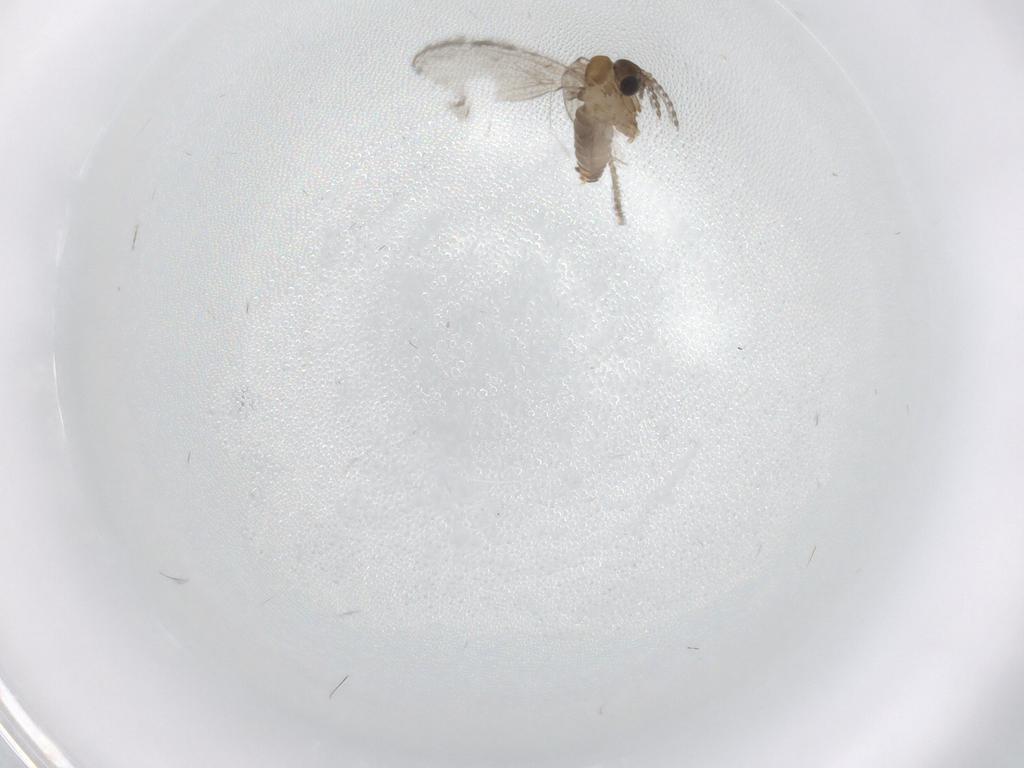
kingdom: Animalia
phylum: Arthropoda
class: Insecta
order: Diptera
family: Cecidomyiidae
